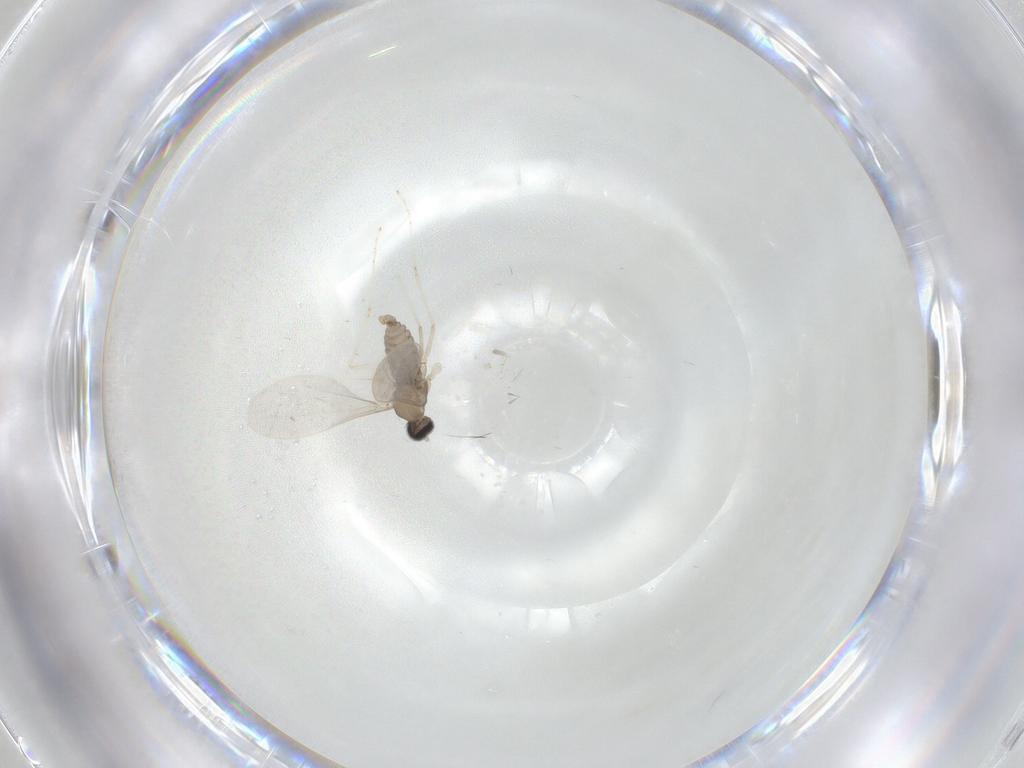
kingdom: Animalia
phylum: Arthropoda
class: Insecta
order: Diptera
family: Cecidomyiidae
